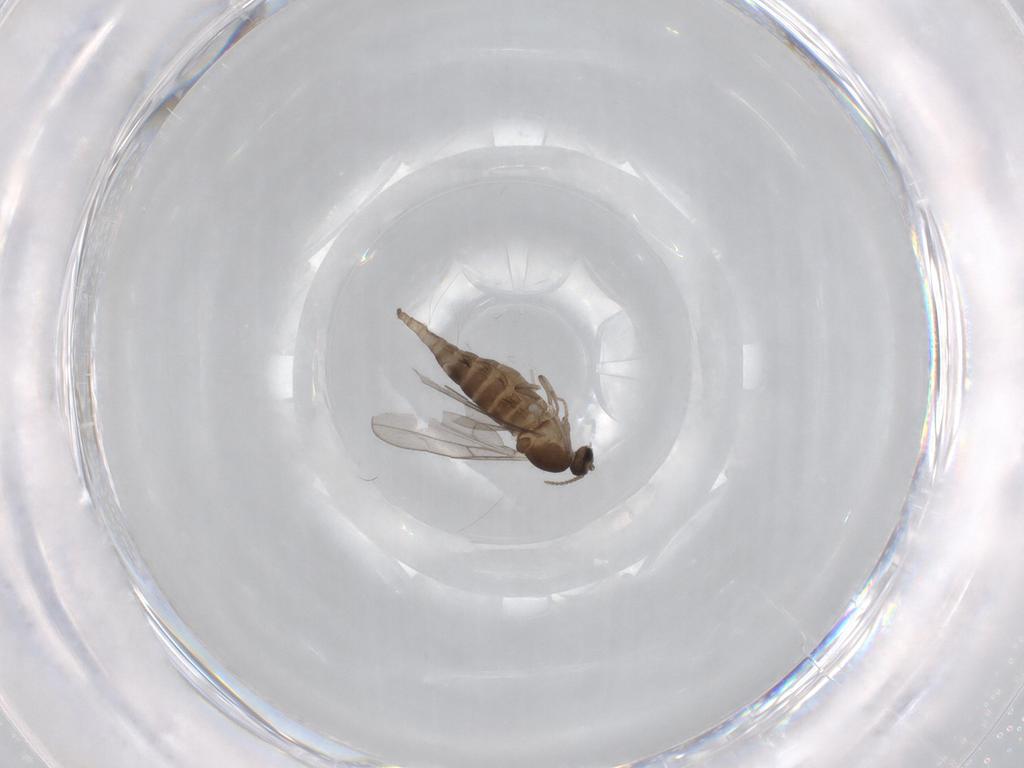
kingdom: Animalia
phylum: Arthropoda
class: Insecta
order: Diptera
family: Cecidomyiidae
